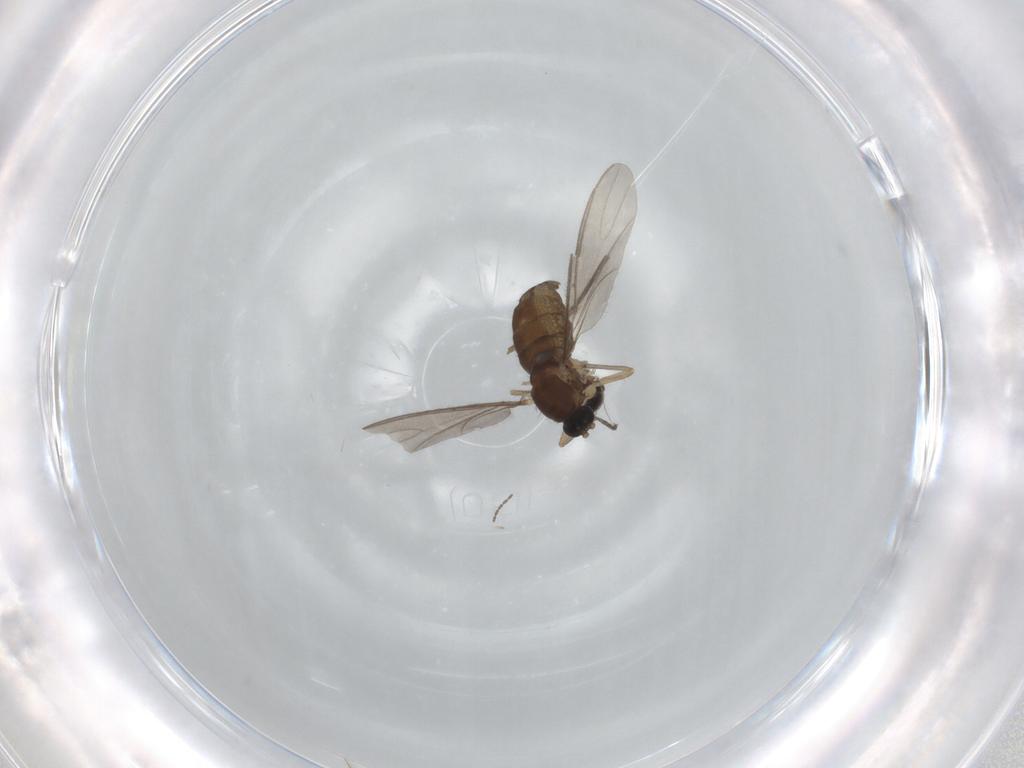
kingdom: Animalia
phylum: Arthropoda
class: Insecta
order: Diptera
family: Sciaridae
